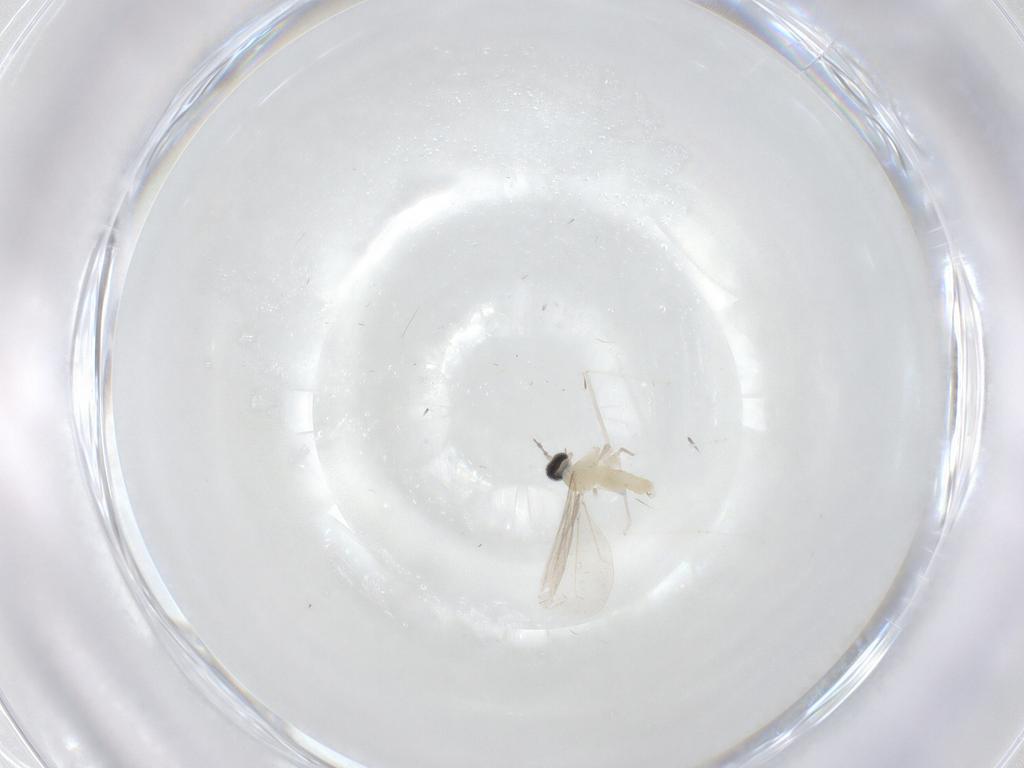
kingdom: Animalia
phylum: Arthropoda
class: Insecta
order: Diptera
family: Cecidomyiidae
